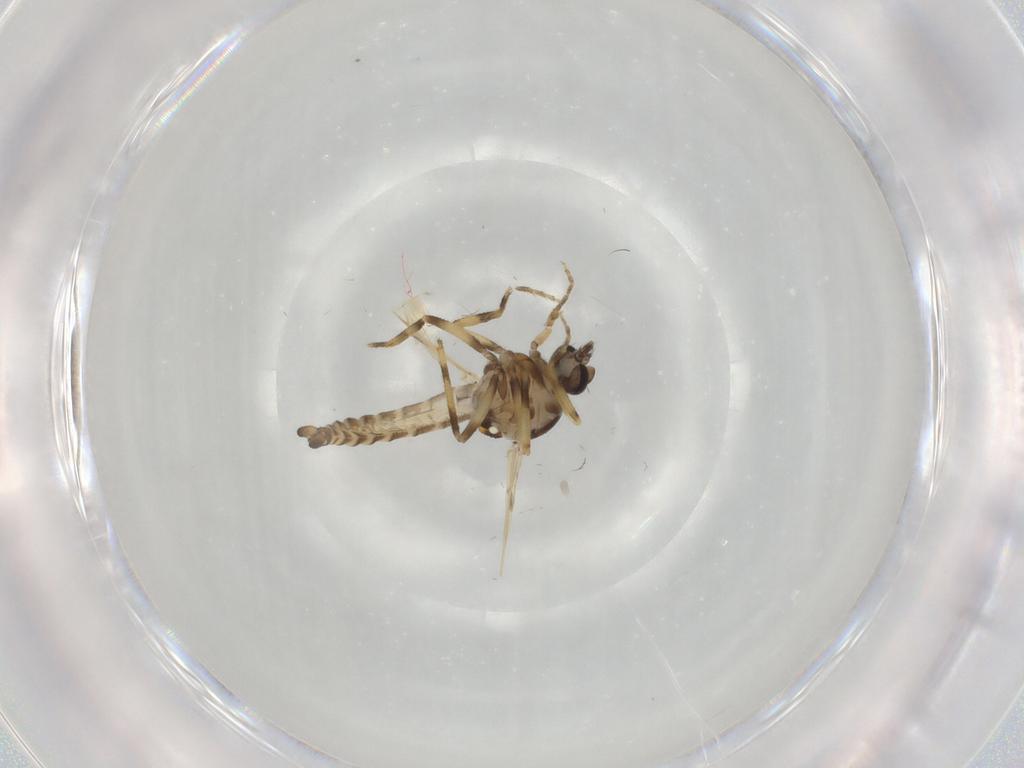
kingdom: Animalia
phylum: Arthropoda
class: Insecta
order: Diptera
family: Ceratopogonidae
